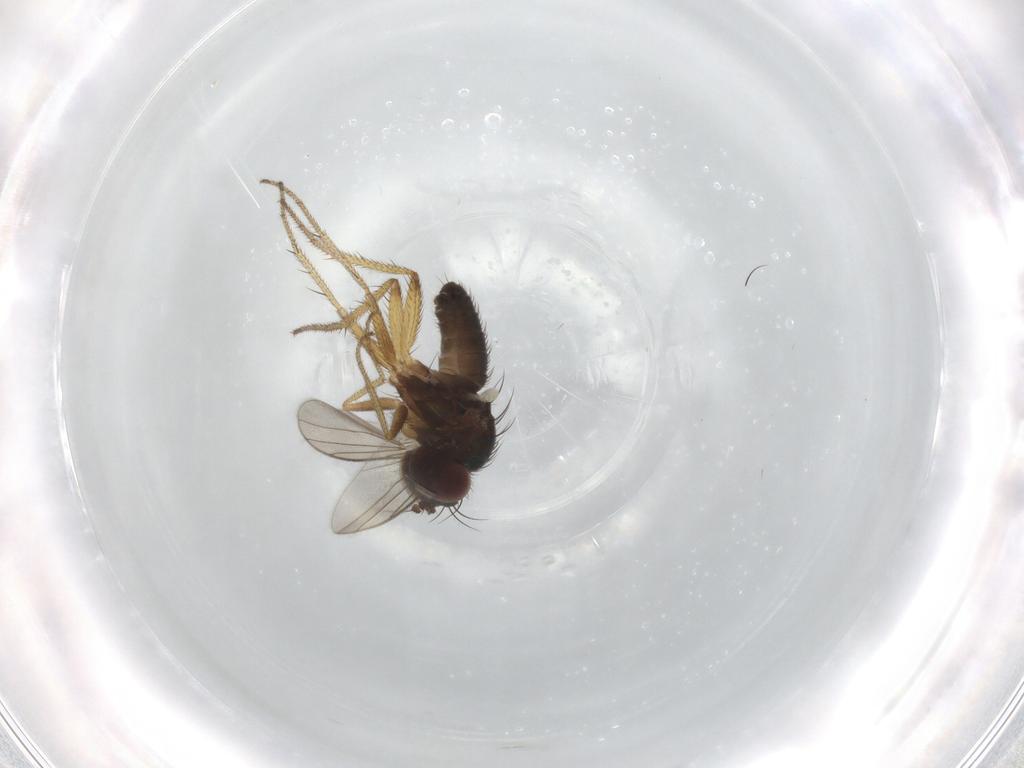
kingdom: Animalia
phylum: Arthropoda
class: Insecta
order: Diptera
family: Dolichopodidae
